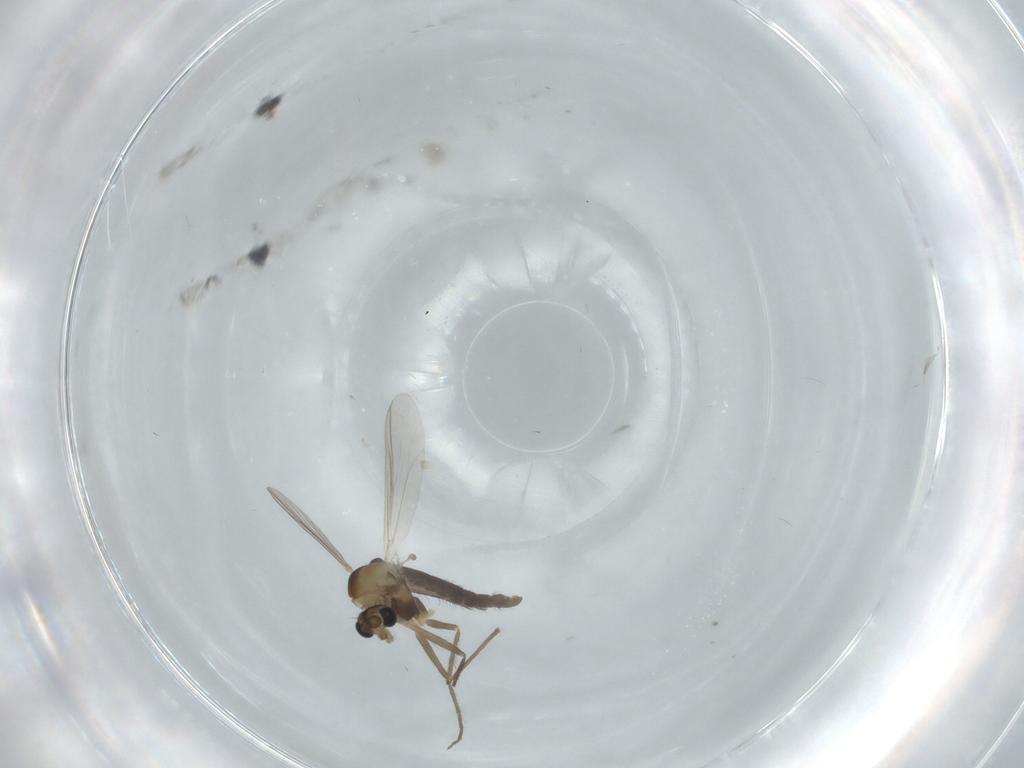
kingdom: Animalia
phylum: Arthropoda
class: Insecta
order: Diptera
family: Chironomidae
